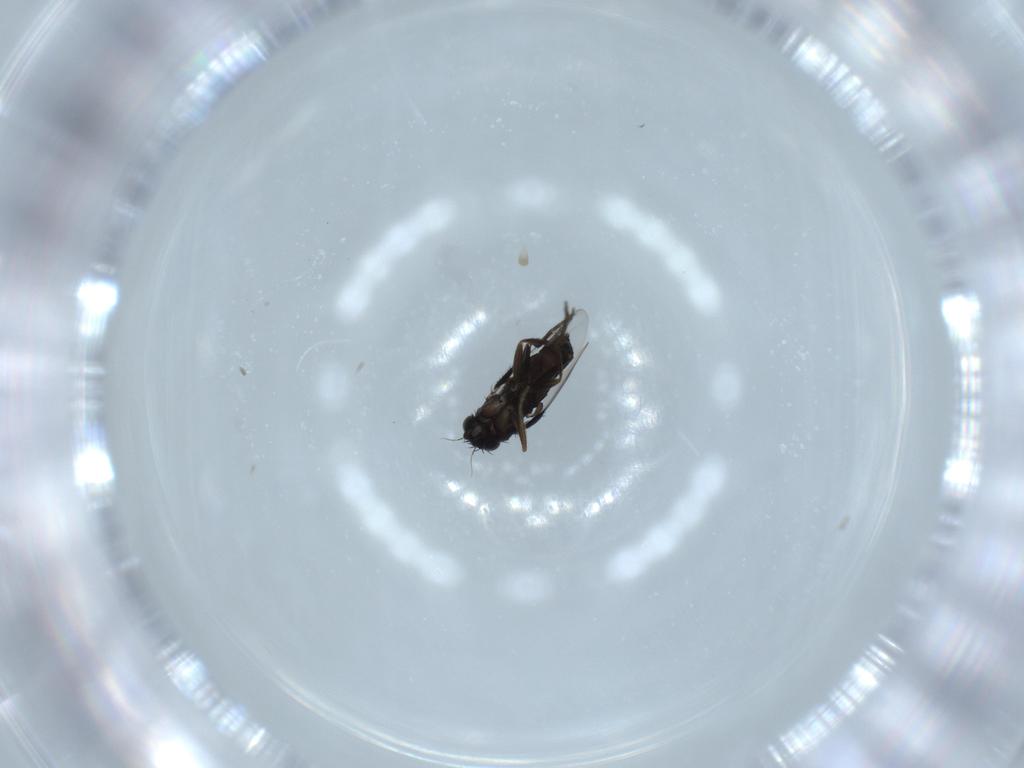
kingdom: Animalia
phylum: Arthropoda
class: Insecta
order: Diptera
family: Phoridae
